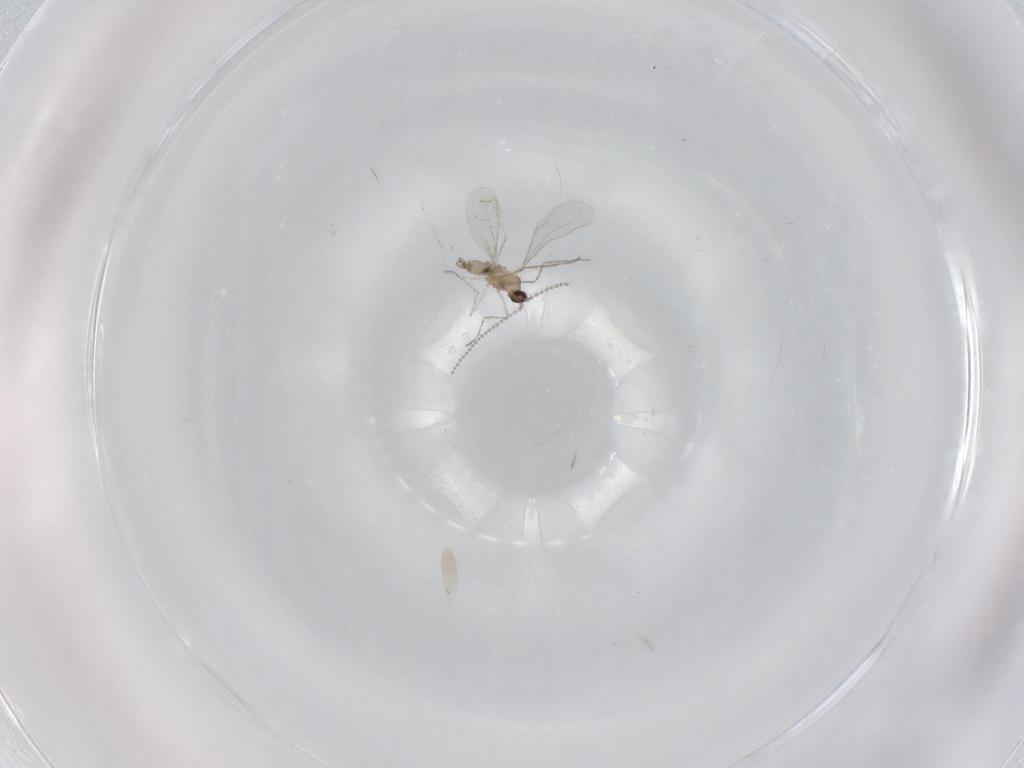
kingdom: Animalia
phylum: Arthropoda
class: Insecta
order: Diptera
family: Cecidomyiidae
